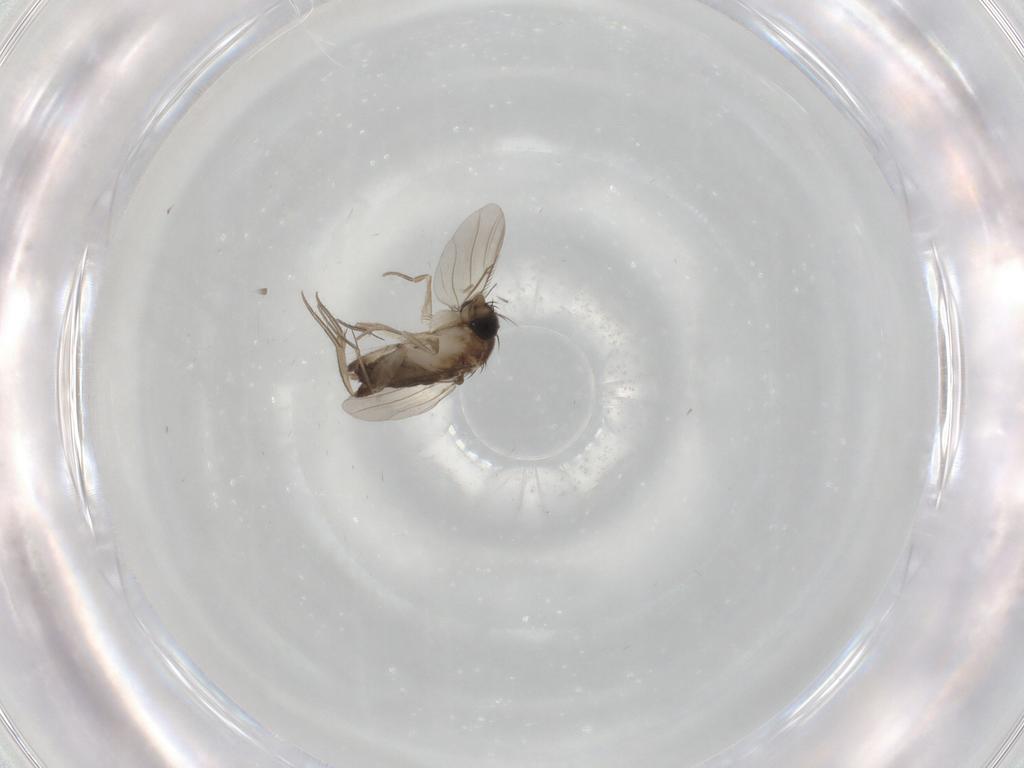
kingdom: Animalia
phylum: Arthropoda
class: Insecta
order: Diptera
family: Phoridae
